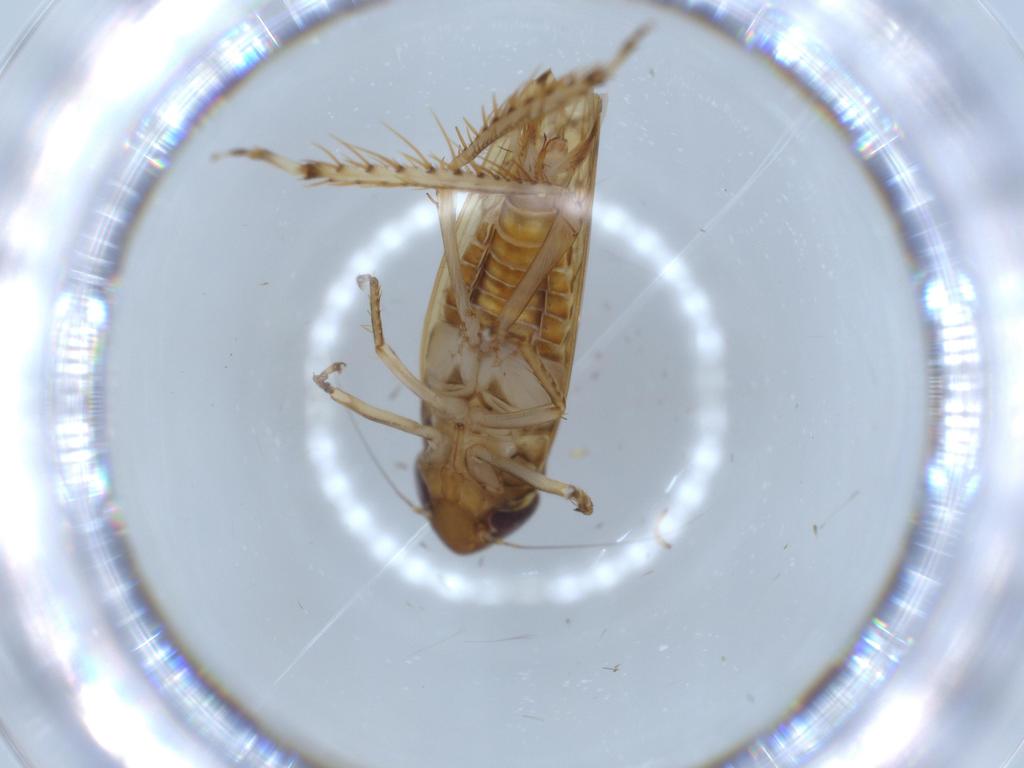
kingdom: Animalia
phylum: Arthropoda
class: Insecta
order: Hemiptera
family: Cicadellidae
